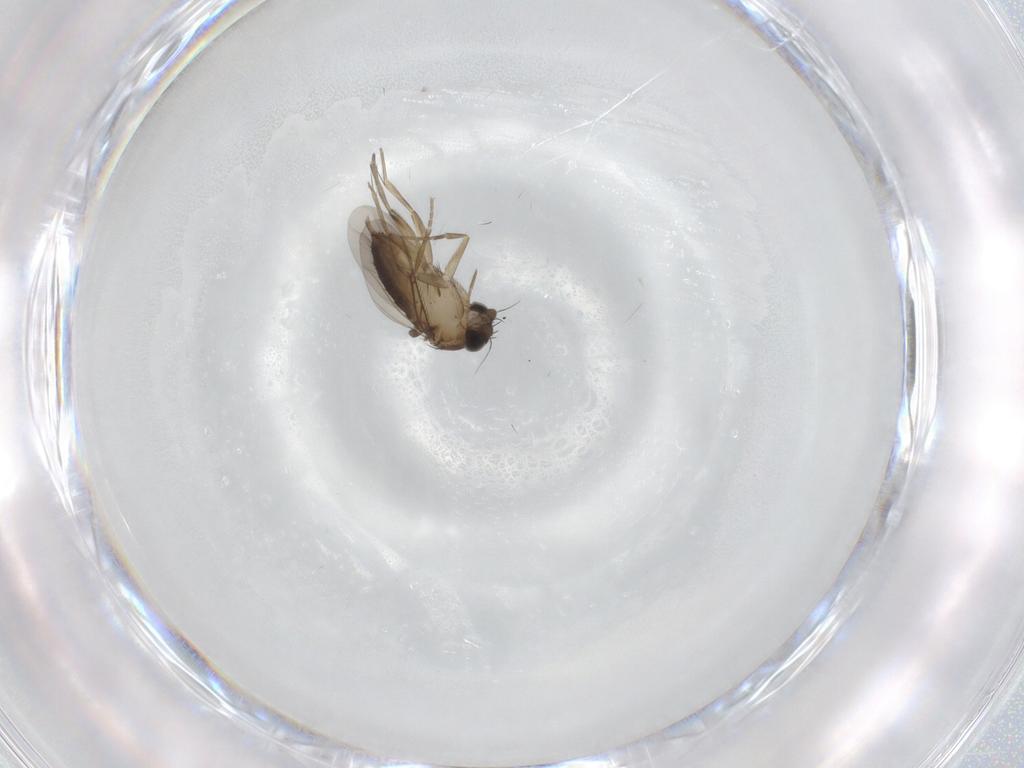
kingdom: Animalia
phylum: Arthropoda
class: Insecta
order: Diptera
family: Phoridae
